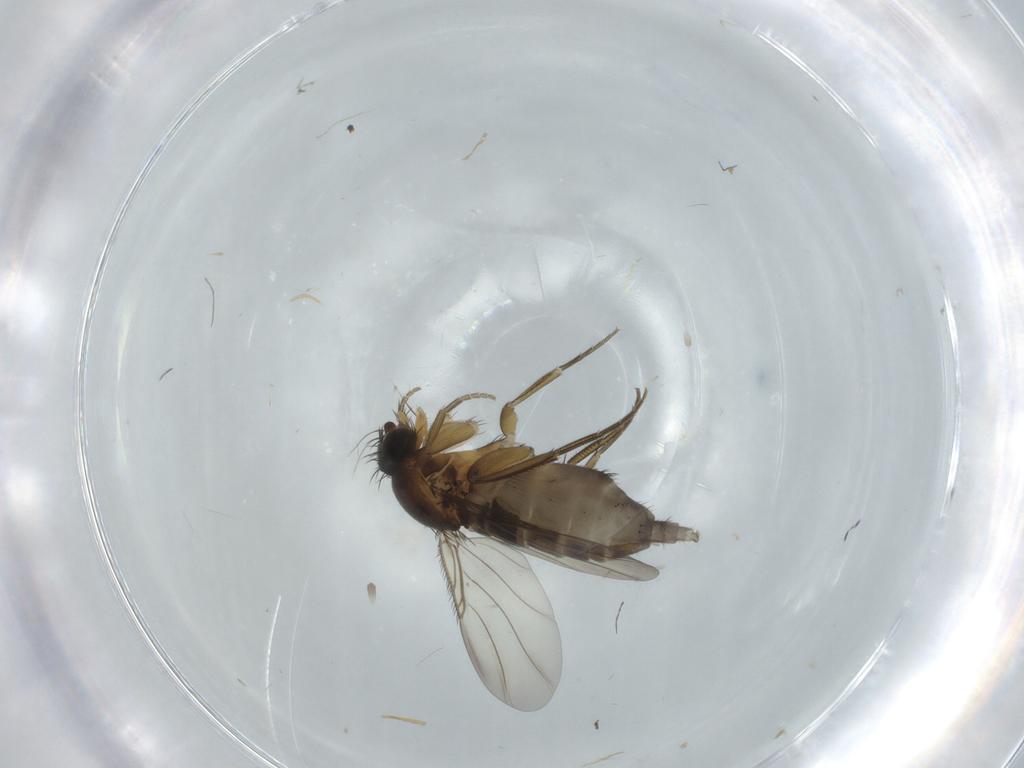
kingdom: Animalia
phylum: Arthropoda
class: Insecta
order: Diptera
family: Phoridae
